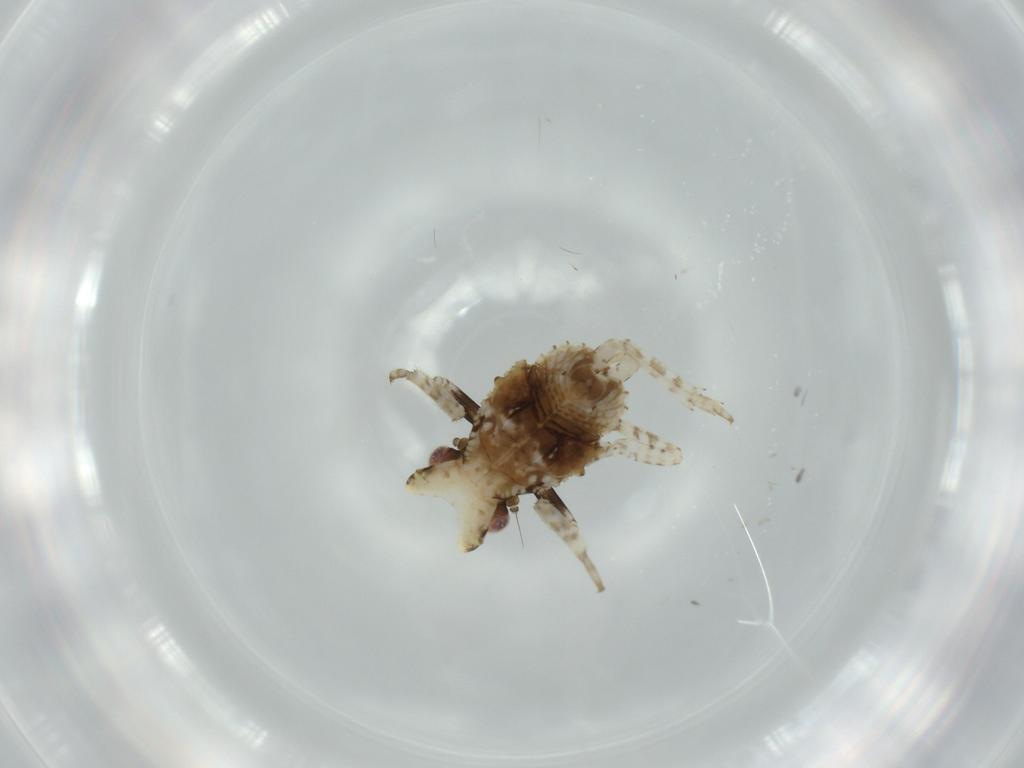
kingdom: Animalia
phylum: Arthropoda
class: Insecta
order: Hemiptera
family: Fulgoridae
